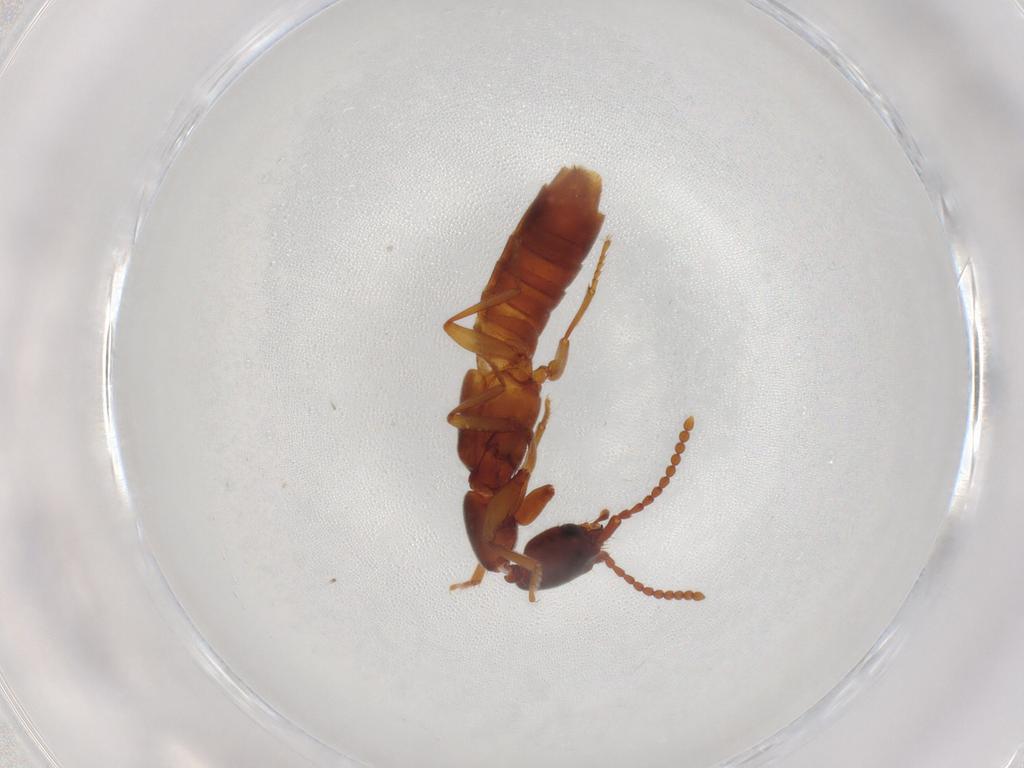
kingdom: Animalia
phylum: Arthropoda
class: Insecta
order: Coleoptera
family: Staphylinidae
